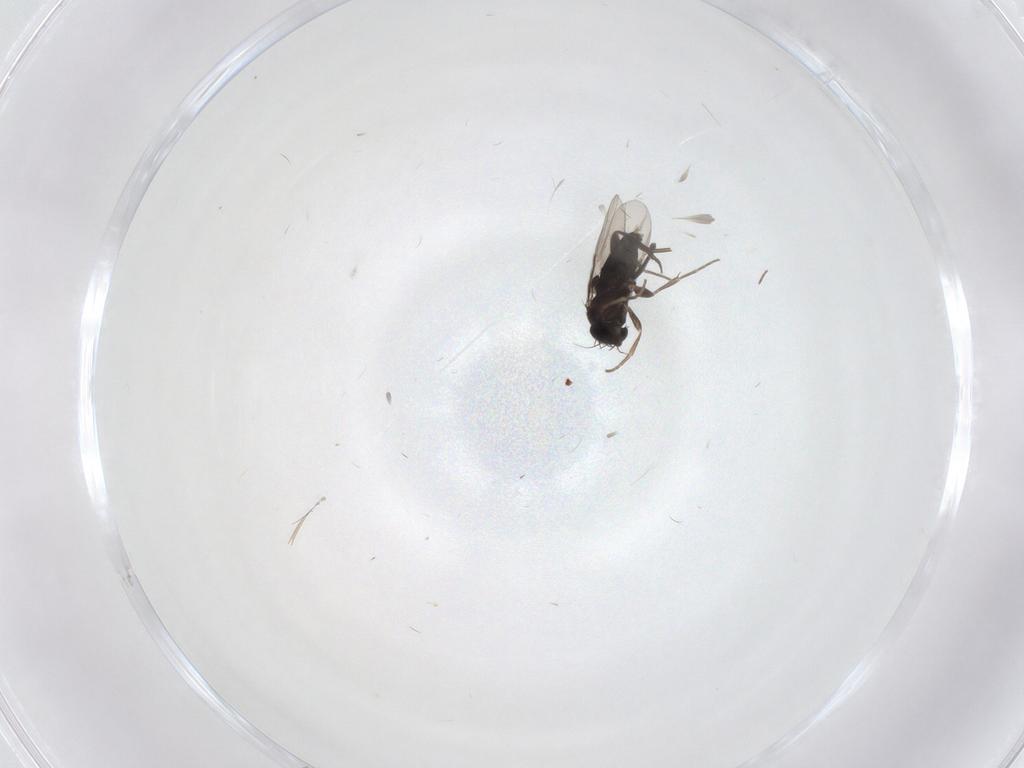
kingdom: Animalia
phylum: Arthropoda
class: Insecta
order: Diptera
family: Phoridae
